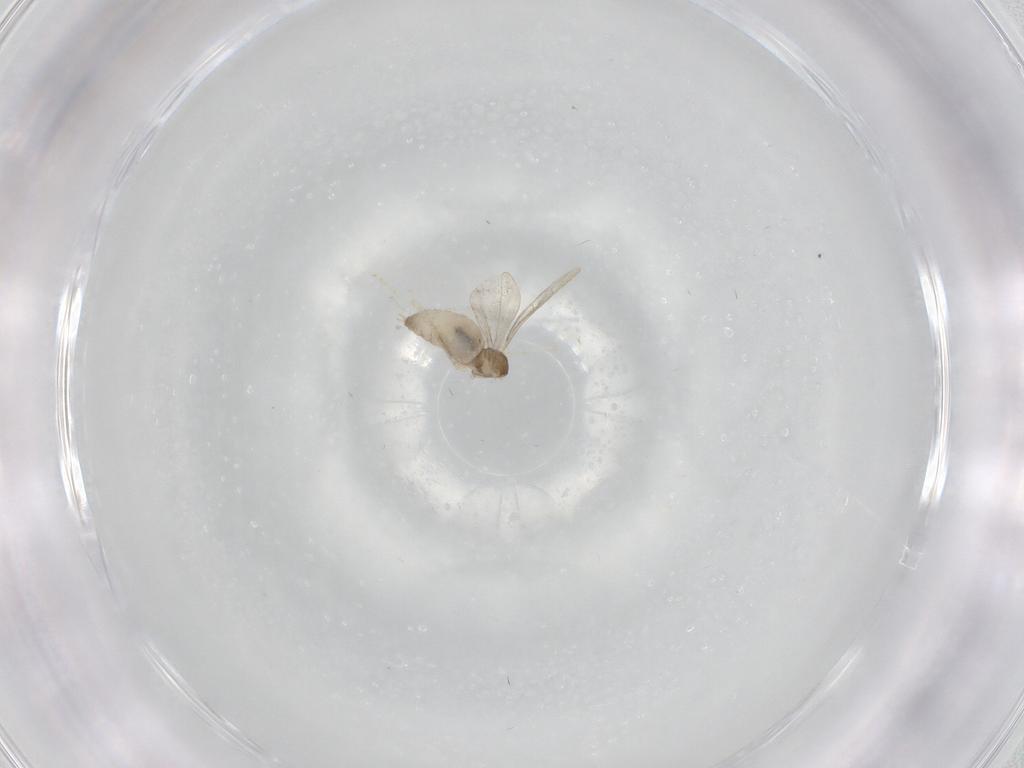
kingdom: Animalia
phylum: Arthropoda
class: Insecta
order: Diptera
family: Cecidomyiidae
